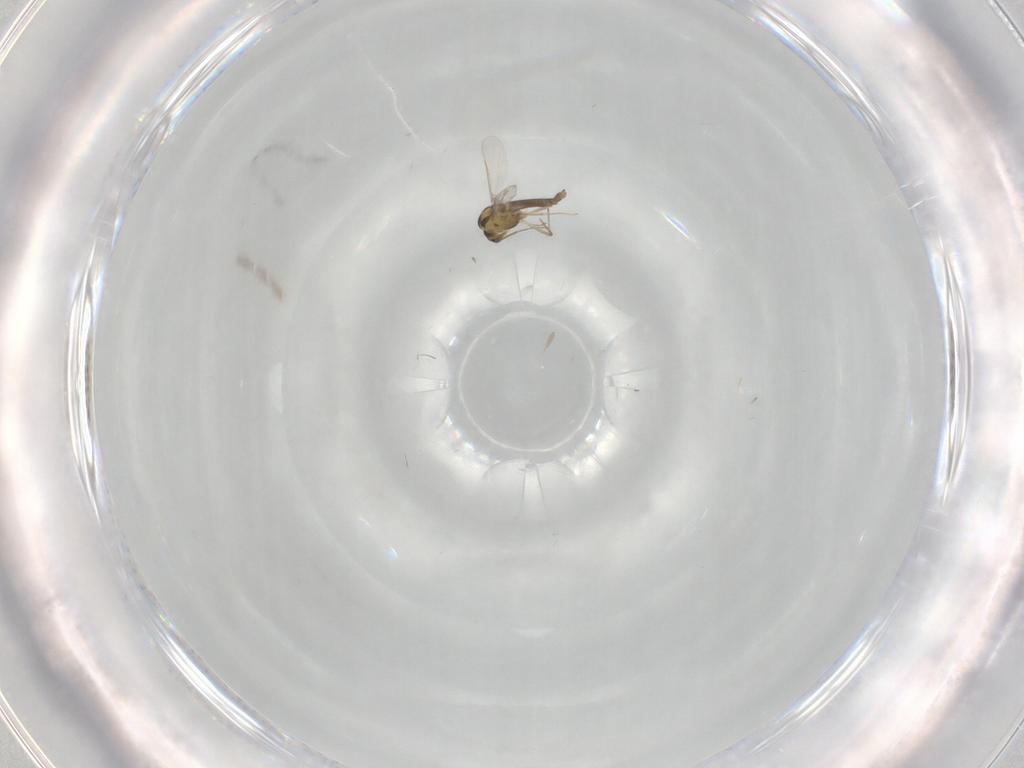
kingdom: Animalia
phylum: Arthropoda
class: Insecta
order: Diptera
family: Chironomidae
